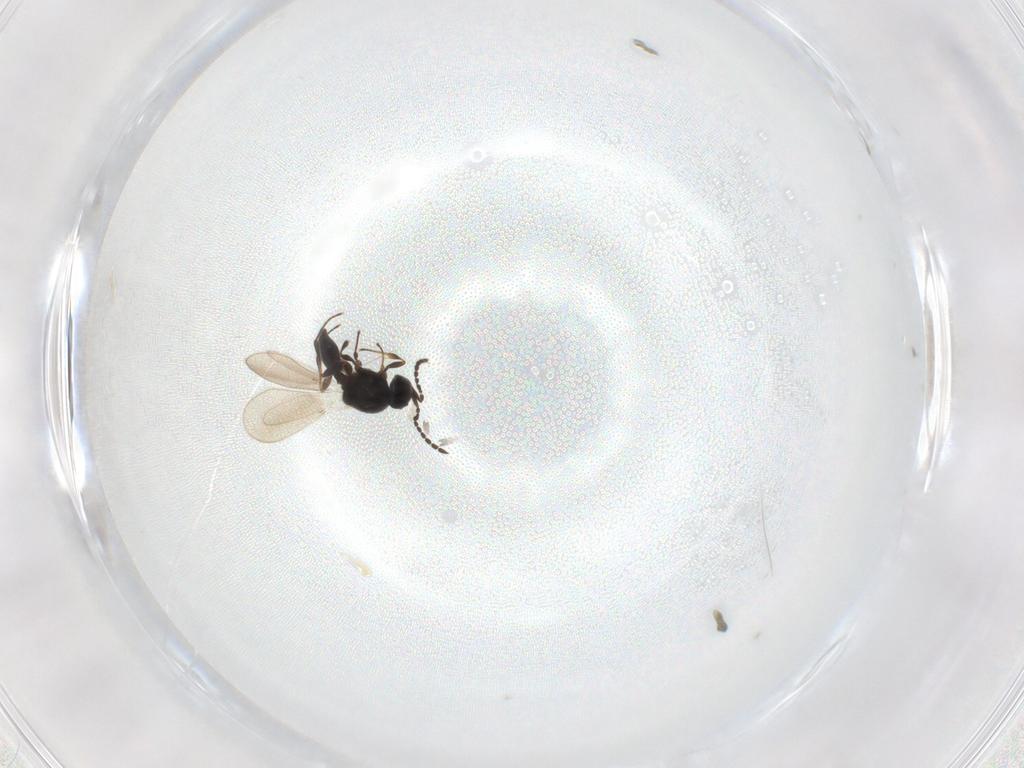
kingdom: Animalia
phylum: Arthropoda
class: Insecta
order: Hymenoptera
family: Platygastridae
